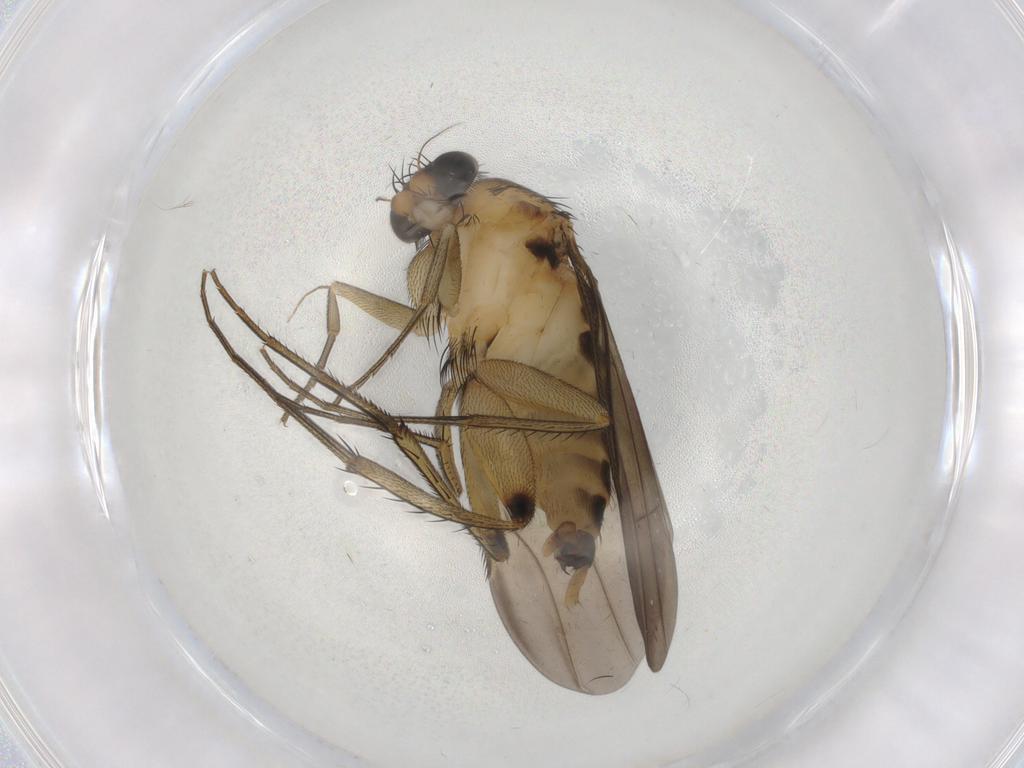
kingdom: Animalia
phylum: Arthropoda
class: Insecta
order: Diptera
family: Phoridae
